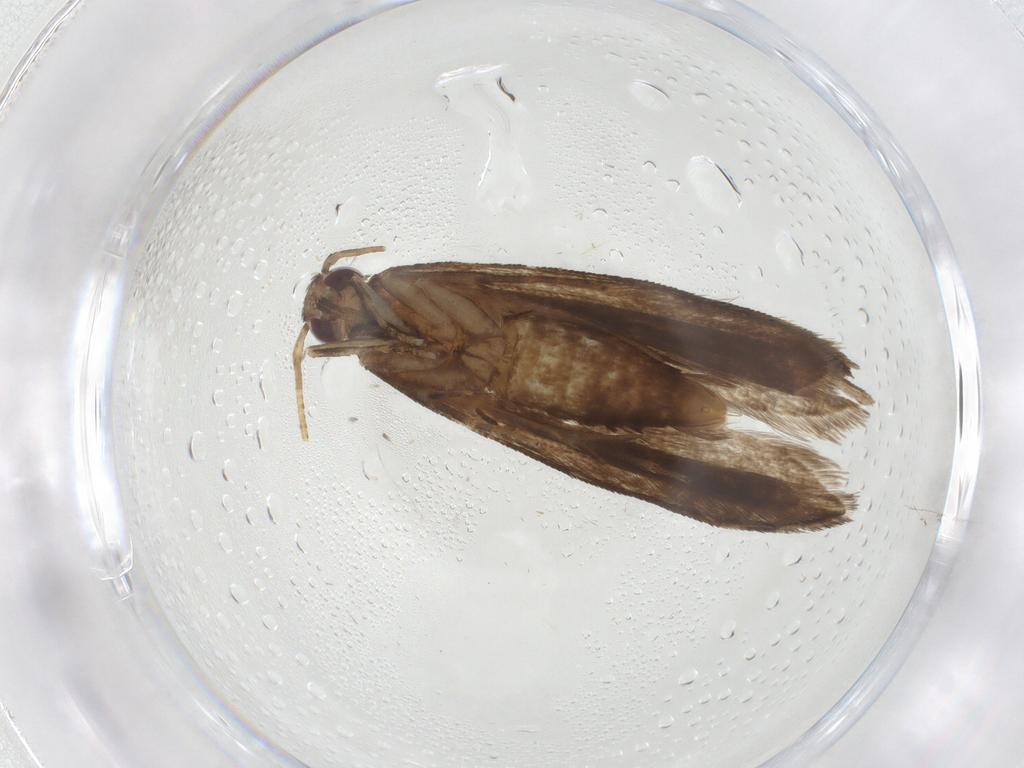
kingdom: Animalia
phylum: Arthropoda
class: Insecta
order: Lepidoptera
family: Gelechiidae
